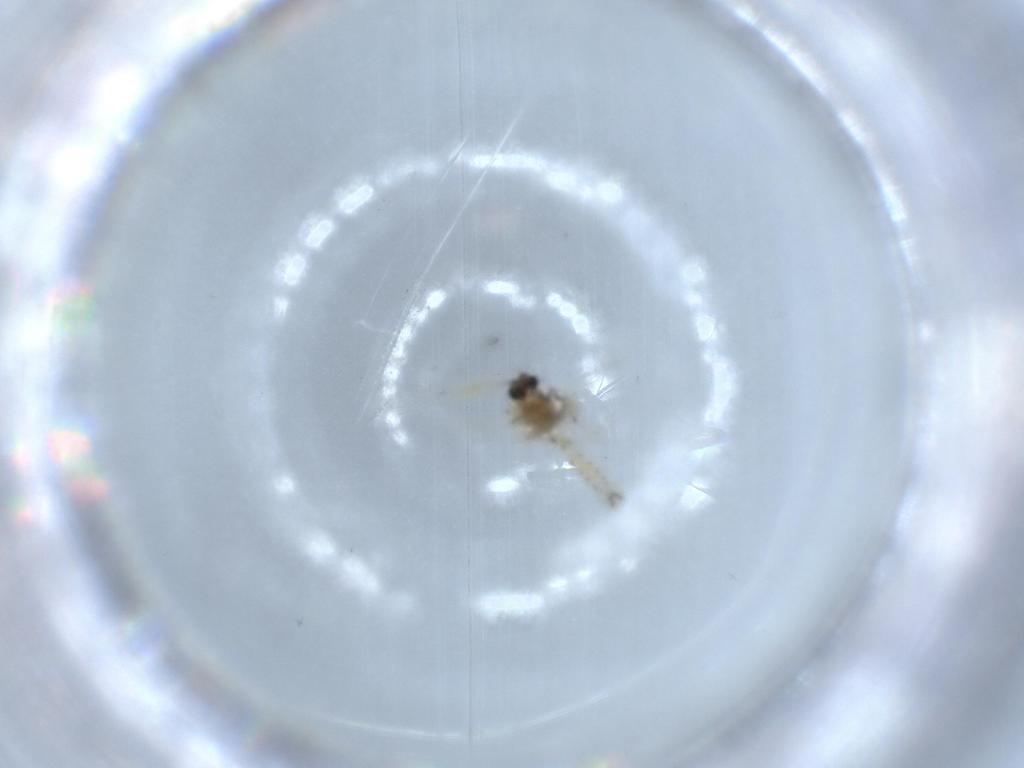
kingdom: Animalia
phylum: Arthropoda
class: Insecta
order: Diptera
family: Ceratopogonidae
